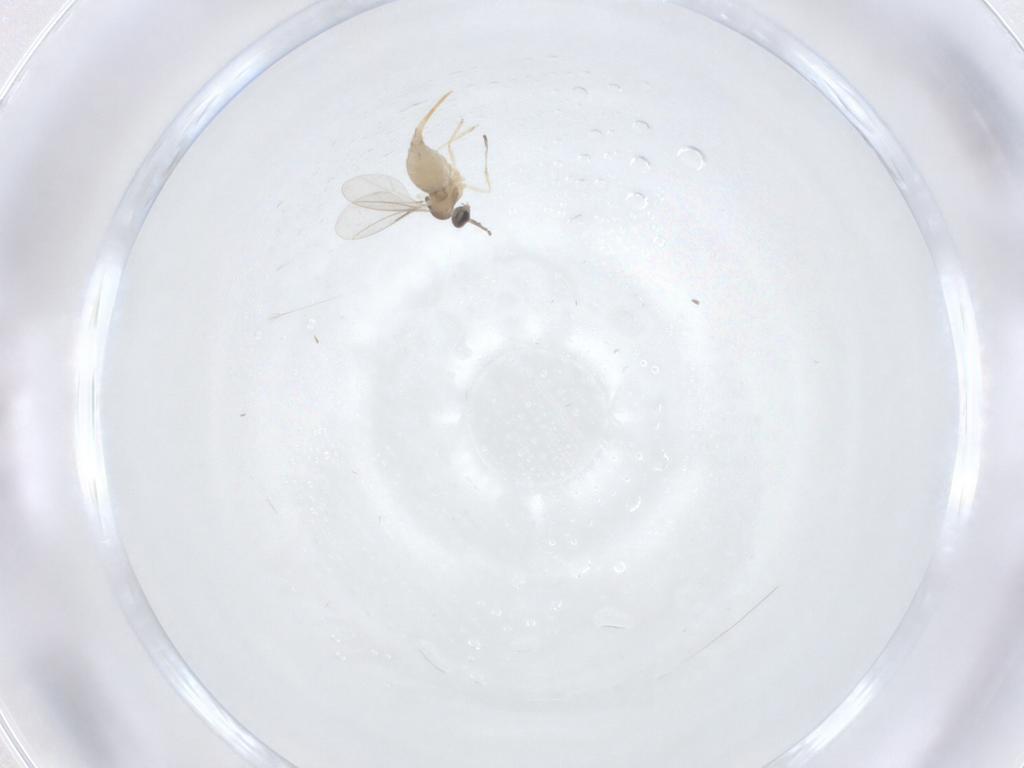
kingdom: Animalia
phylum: Arthropoda
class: Insecta
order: Diptera
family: Cecidomyiidae
